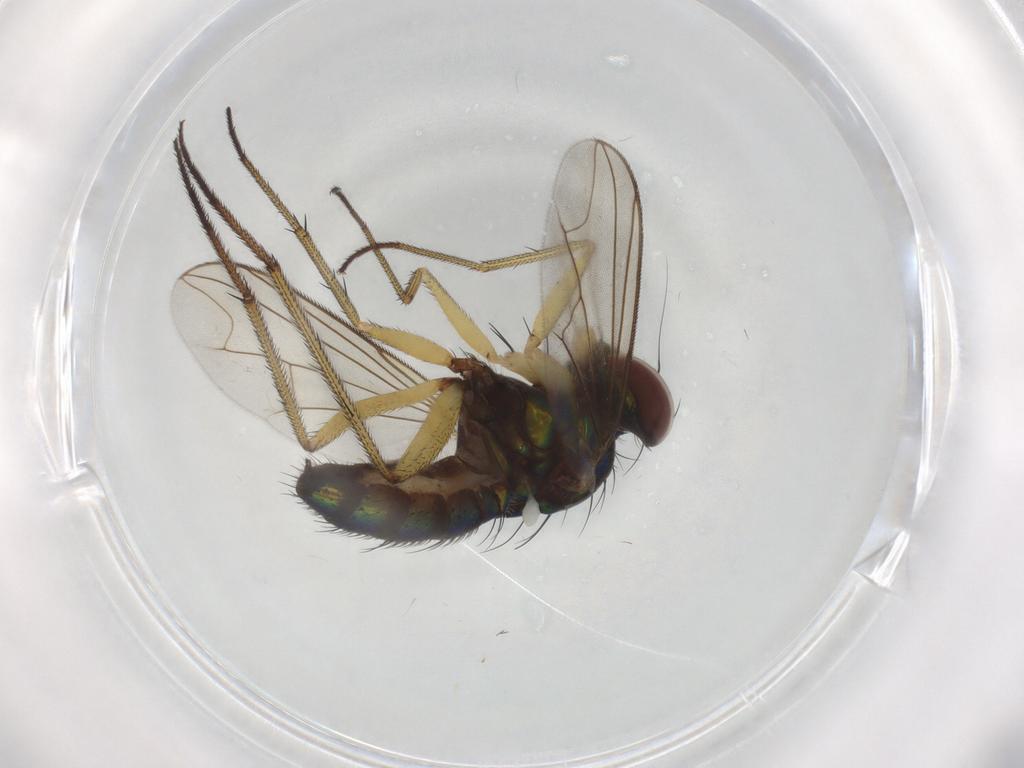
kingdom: Animalia
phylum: Arthropoda
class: Insecta
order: Diptera
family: Dolichopodidae
